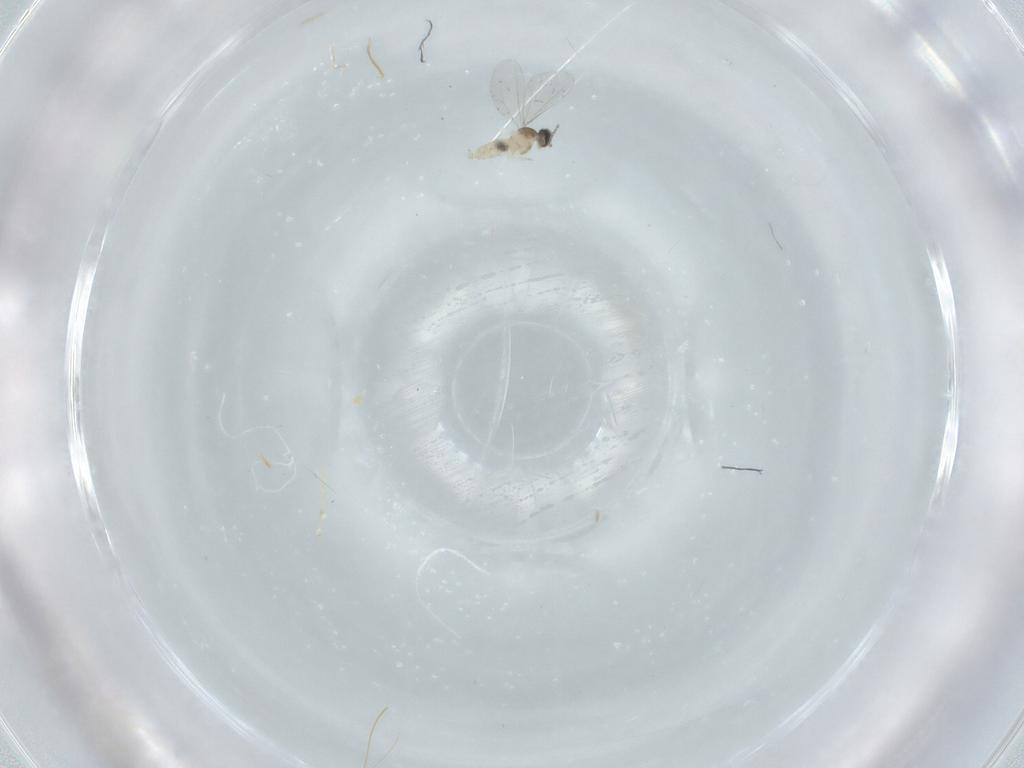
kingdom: Animalia
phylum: Arthropoda
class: Insecta
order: Diptera
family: Cecidomyiidae
